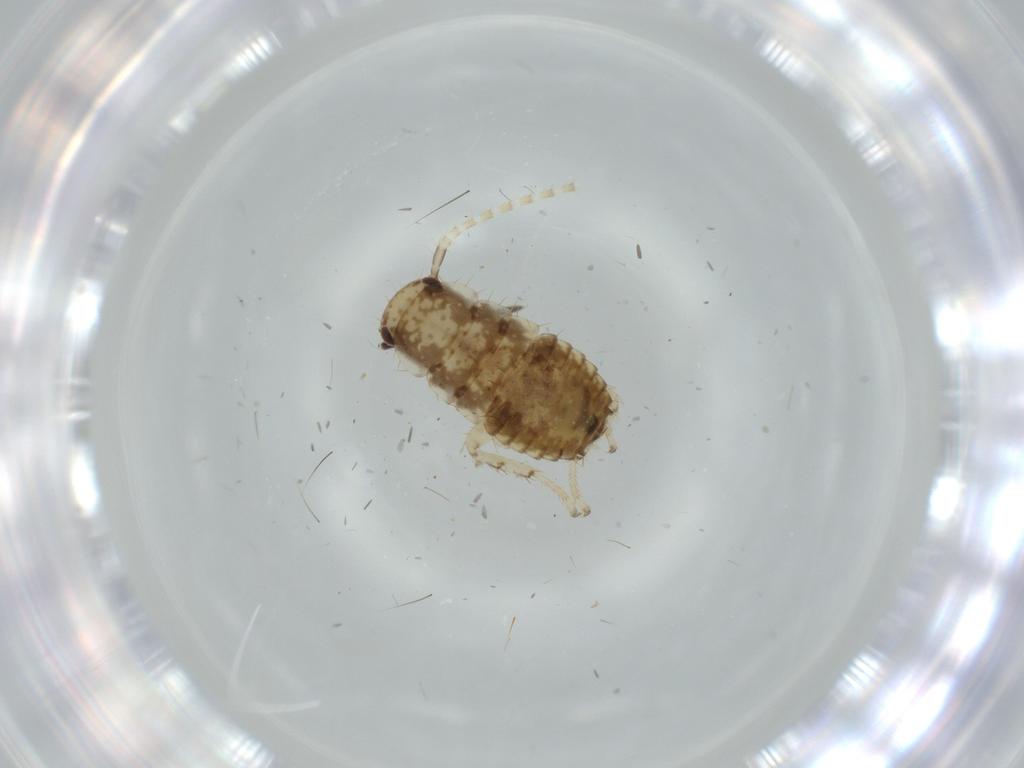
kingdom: Animalia
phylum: Arthropoda
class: Insecta
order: Blattodea
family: Ectobiidae
